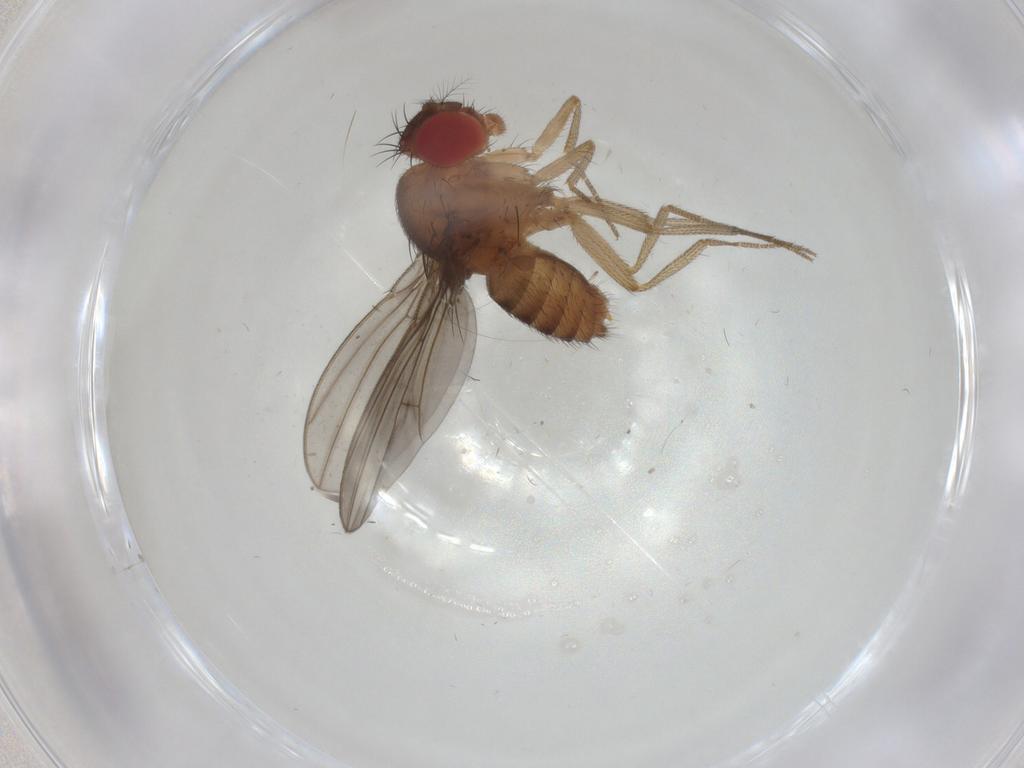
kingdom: Animalia
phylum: Arthropoda
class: Insecta
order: Diptera
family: Drosophilidae
